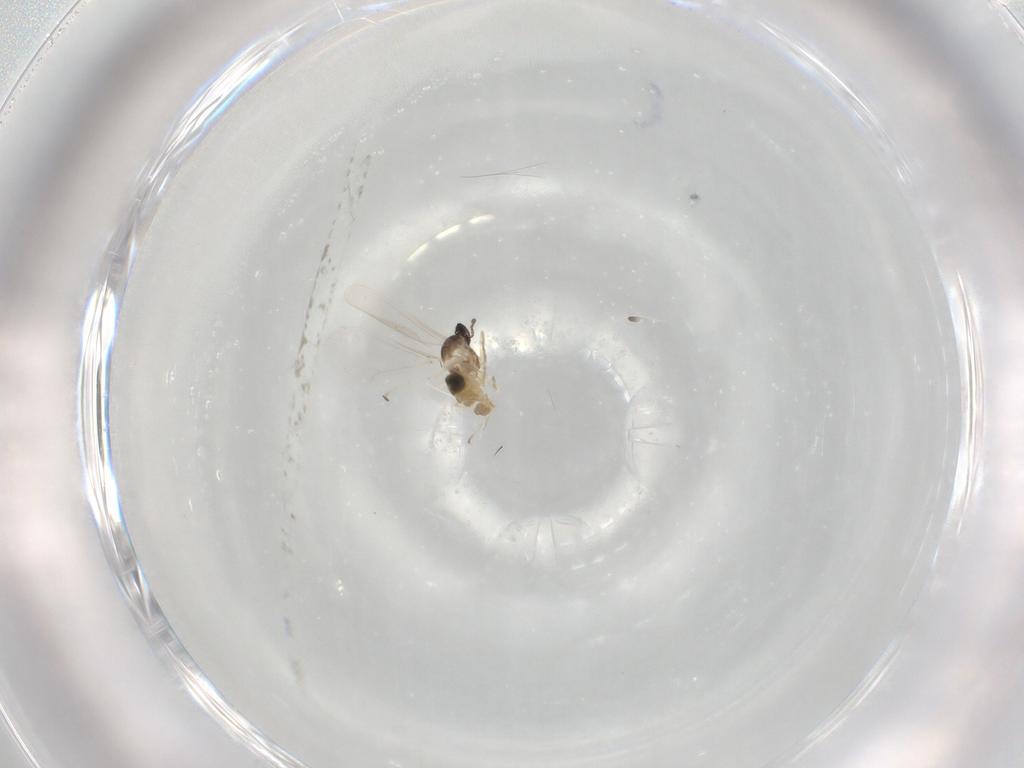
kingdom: Animalia
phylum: Arthropoda
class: Insecta
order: Diptera
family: Cecidomyiidae
